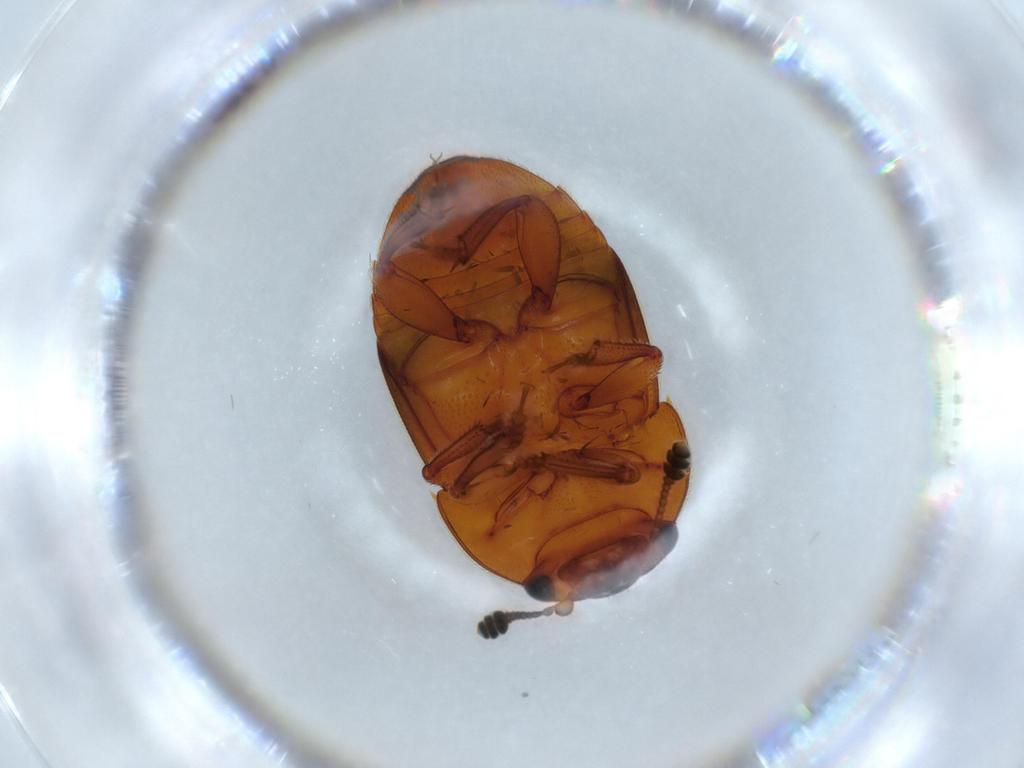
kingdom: Animalia
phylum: Arthropoda
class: Insecta
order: Coleoptera
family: Nitidulidae
